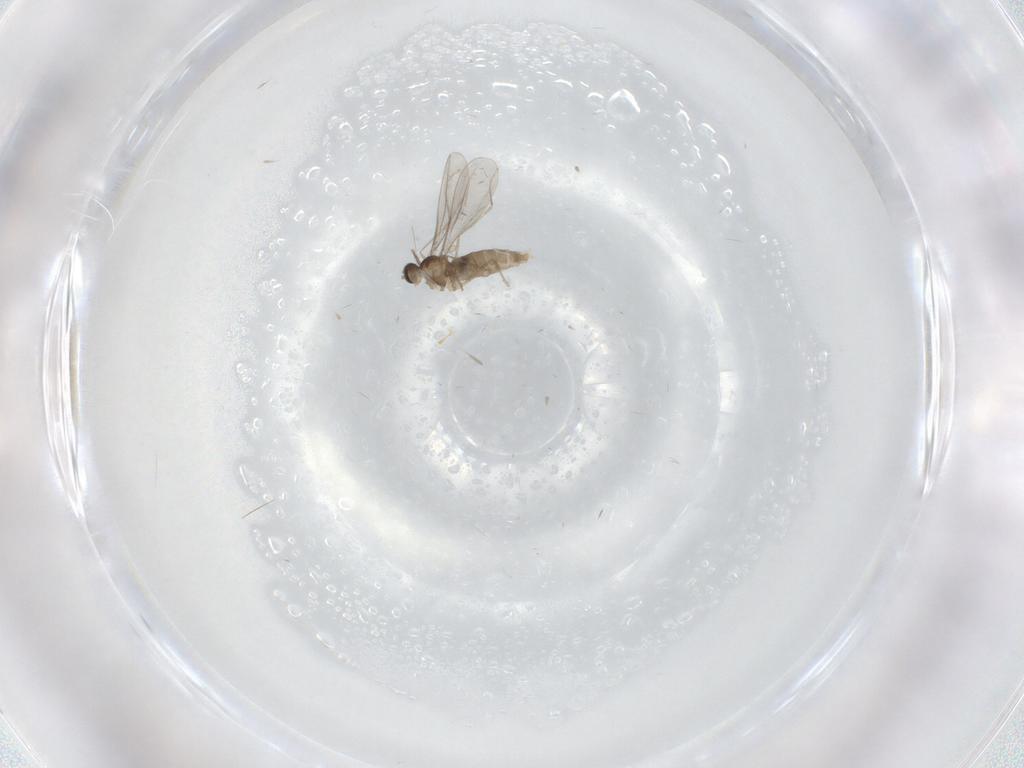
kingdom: Animalia
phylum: Arthropoda
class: Insecta
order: Diptera
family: Ceratopogonidae
